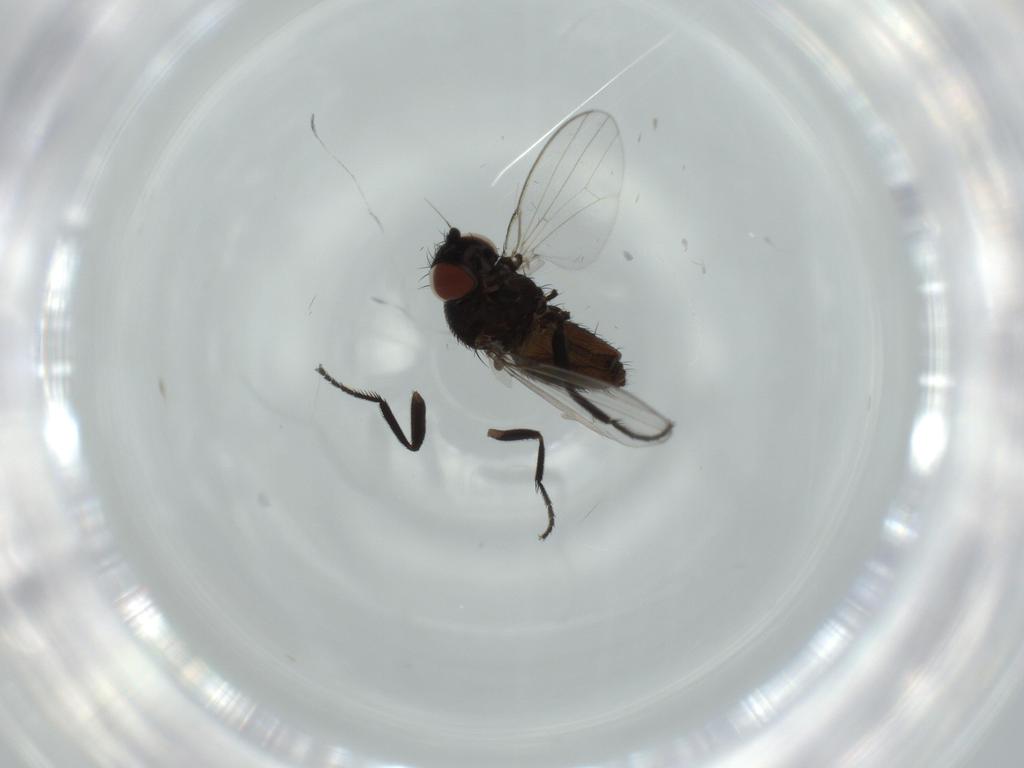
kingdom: Animalia
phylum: Arthropoda
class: Insecta
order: Diptera
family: Milichiidae
